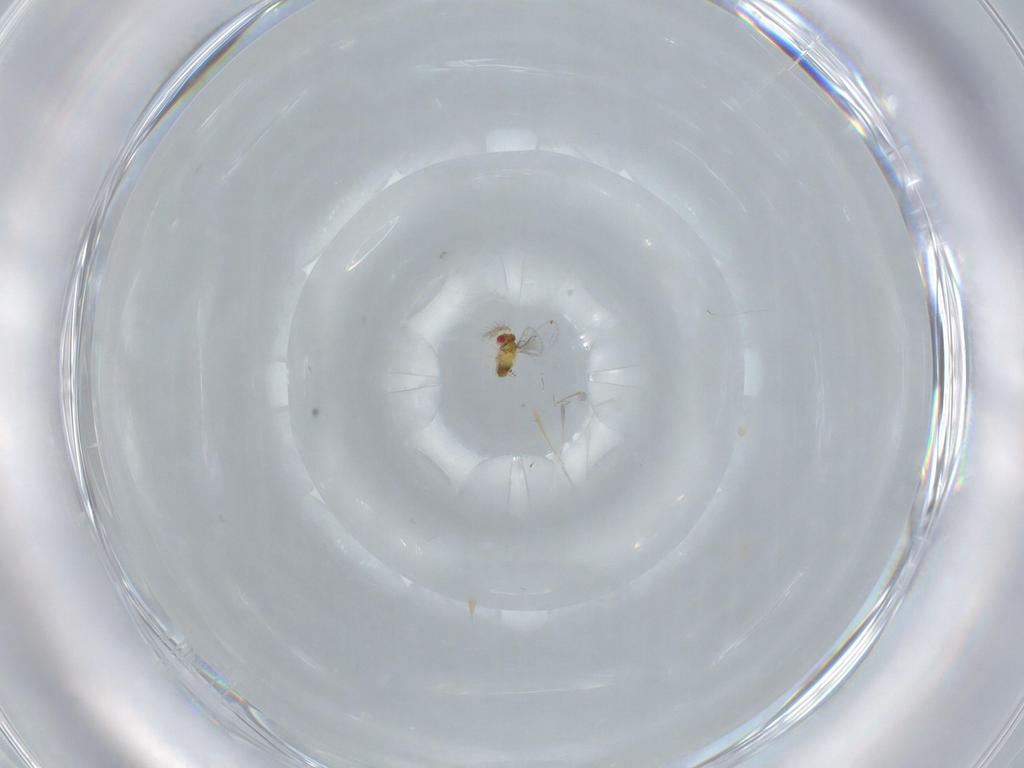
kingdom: Animalia
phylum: Arthropoda
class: Insecta
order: Hymenoptera
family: Trichogrammatidae
